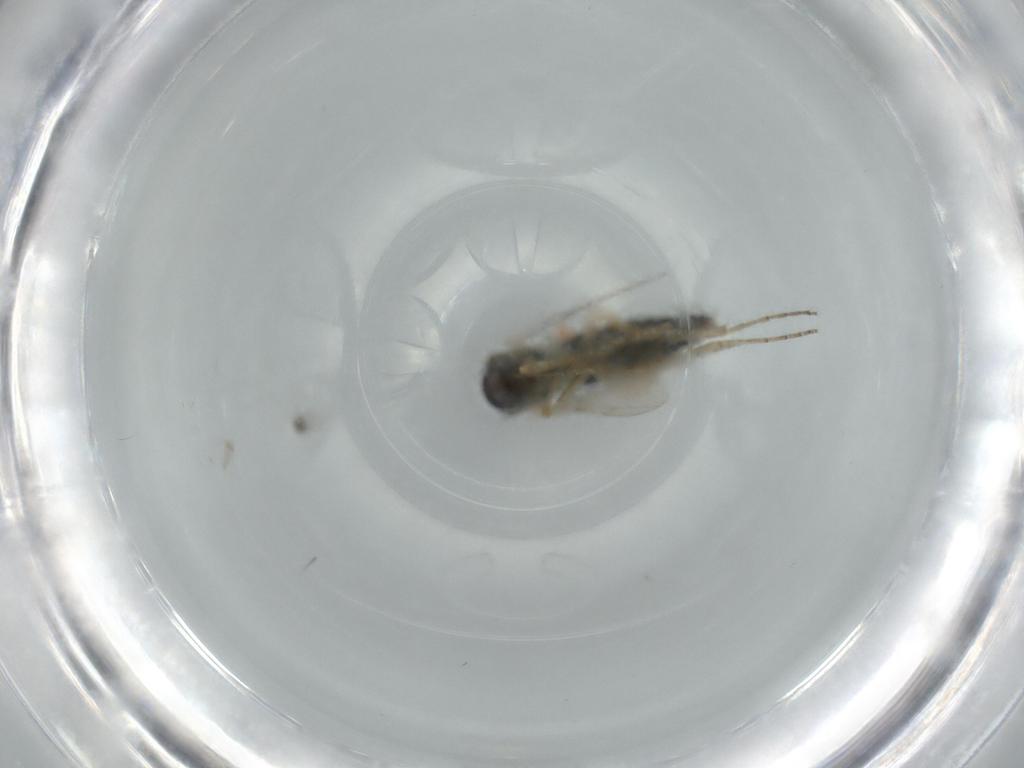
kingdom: Animalia
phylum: Arthropoda
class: Insecta
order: Diptera
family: Ceratopogonidae
